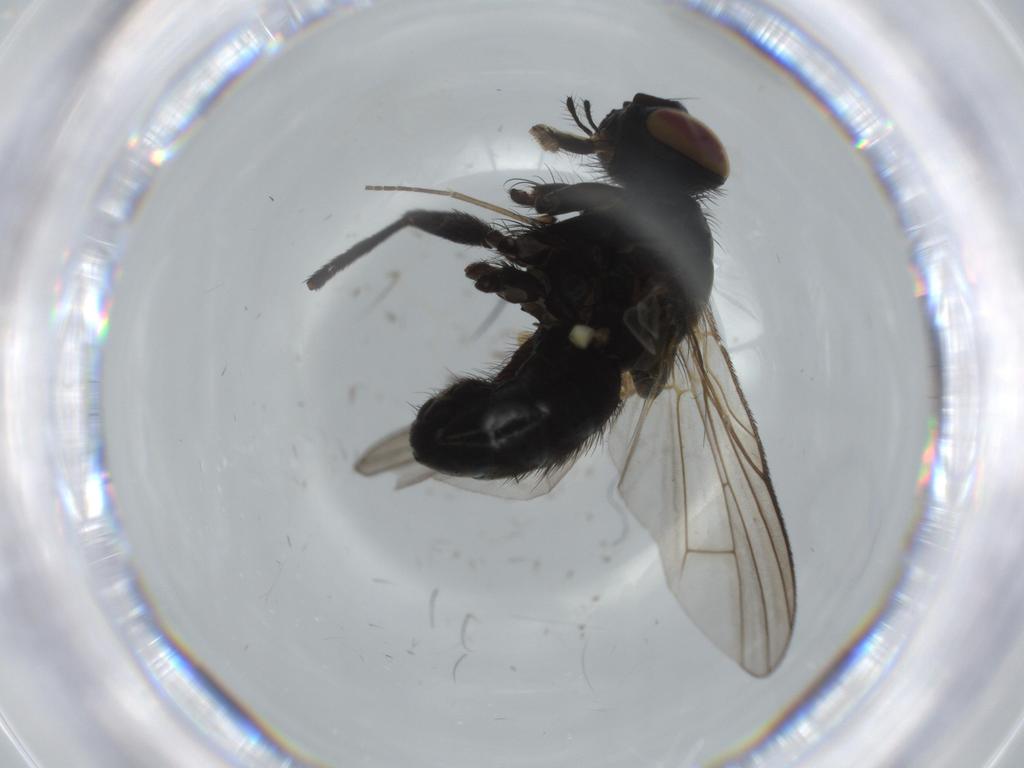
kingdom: Animalia
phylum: Arthropoda
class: Insecta
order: Diptera
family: Muscidae
